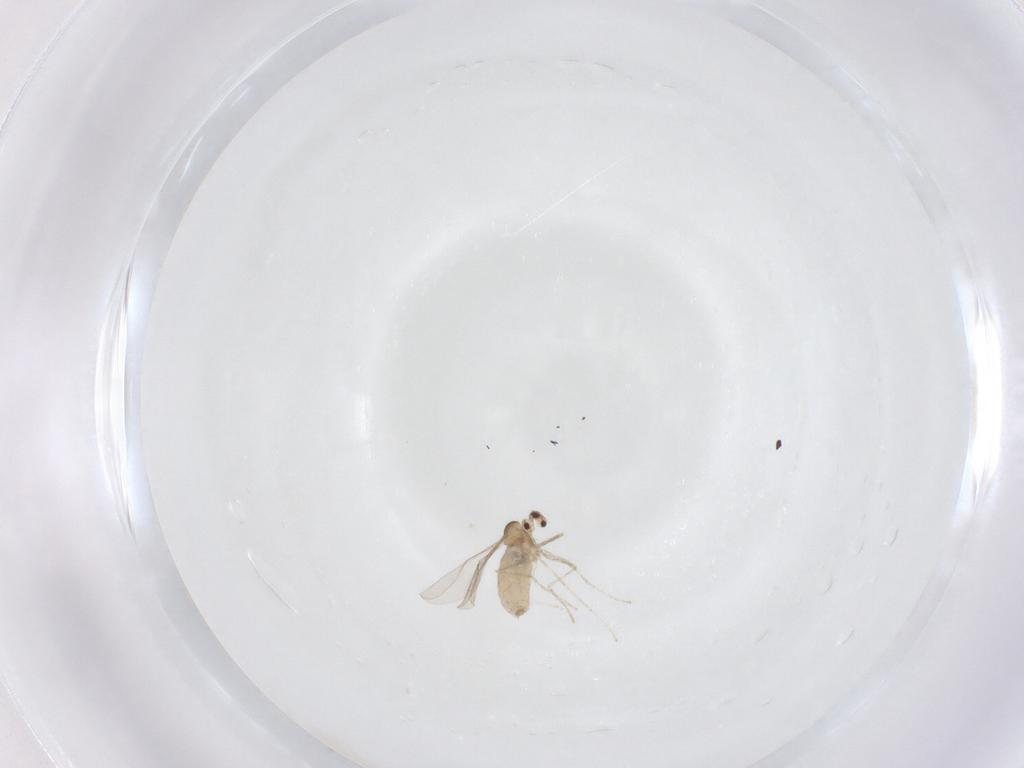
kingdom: Animalia
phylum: Arthropoda
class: Insecta
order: Diptera
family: Cecidomyiidae
